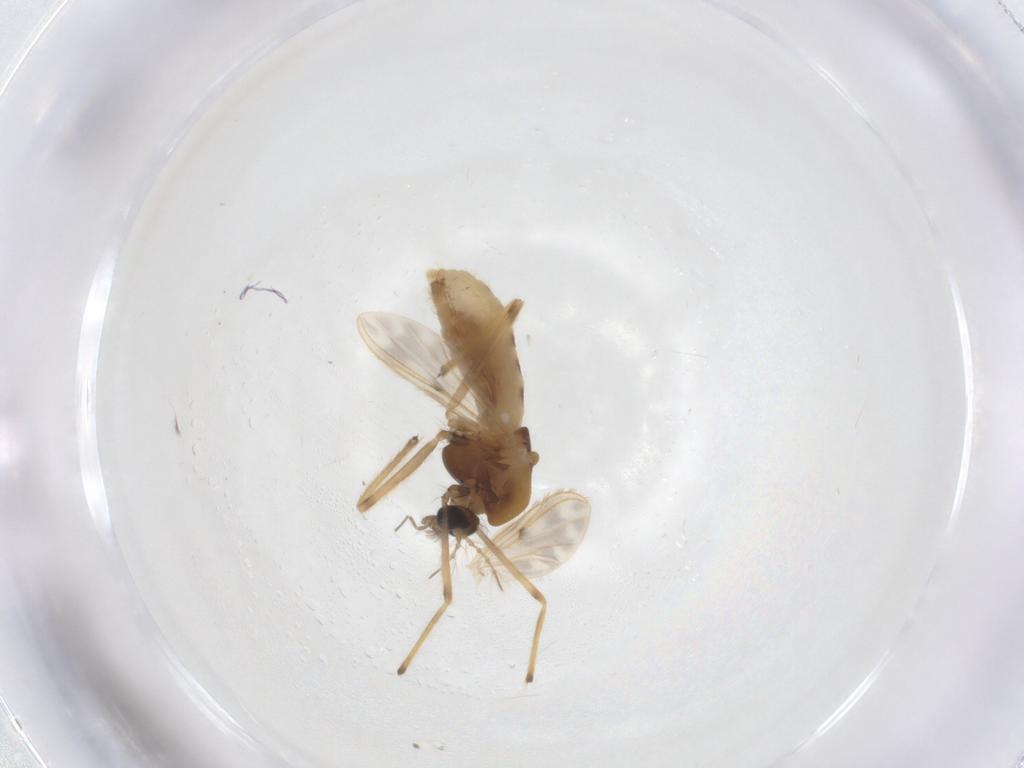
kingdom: Animalia
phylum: Arthropoda
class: Insecta
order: Diptera
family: Chironomidae
